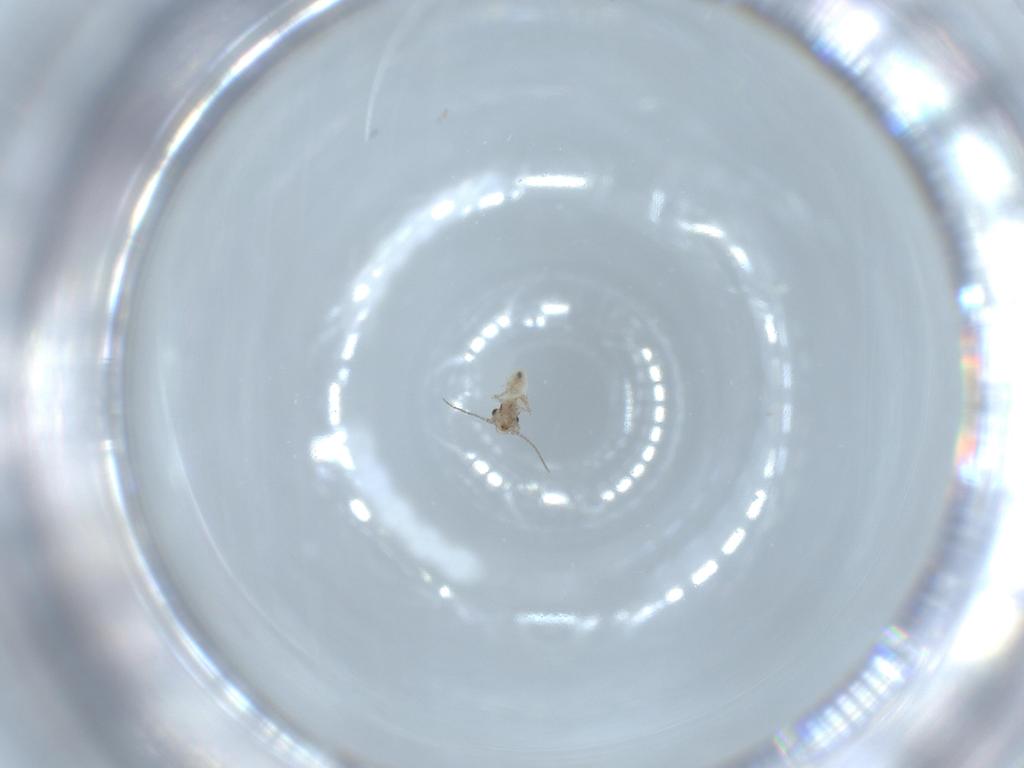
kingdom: Animalia
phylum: Arthropoda
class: Insecta
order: Psocodea
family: Lepidopsocidae
